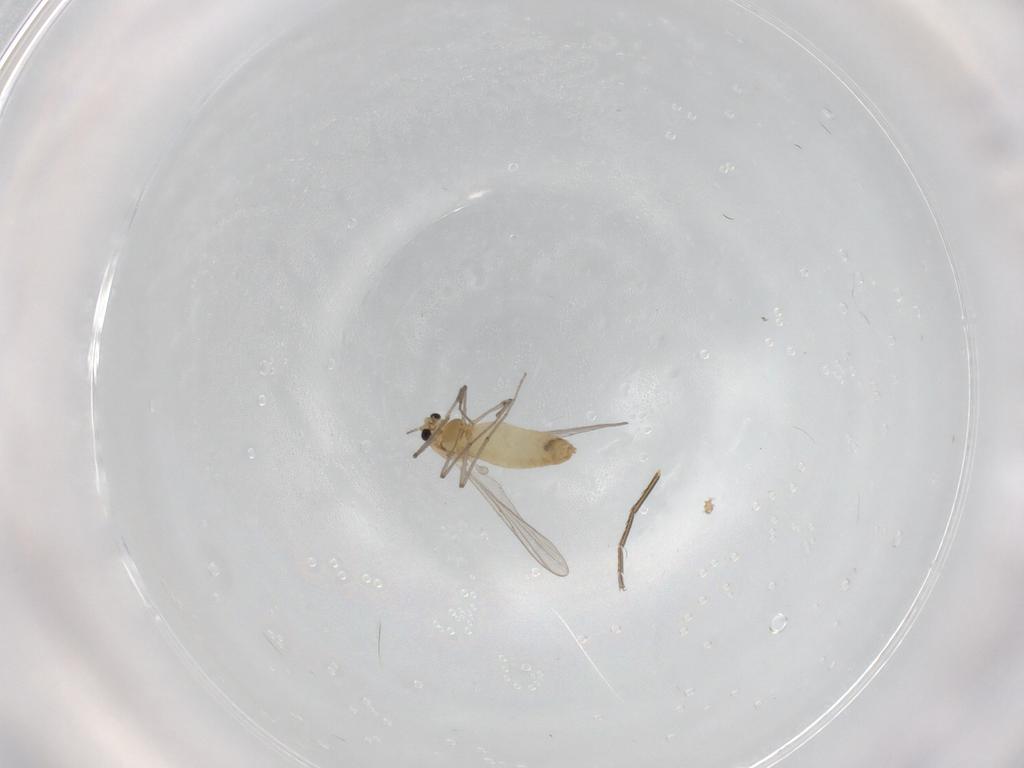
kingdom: Animalia
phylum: Arthropoda
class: Insecta
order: Diptera
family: Chironomidae
